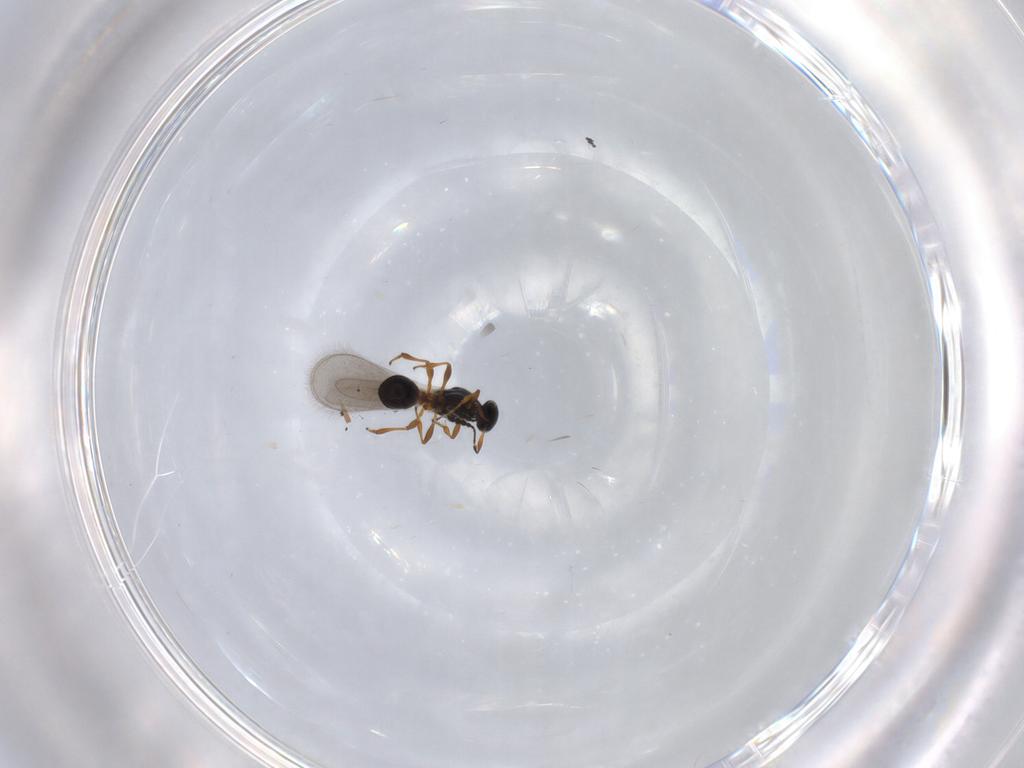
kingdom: Animalia
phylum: Arthropoda
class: Insecta
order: Hymenoptera
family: Platygastridae
